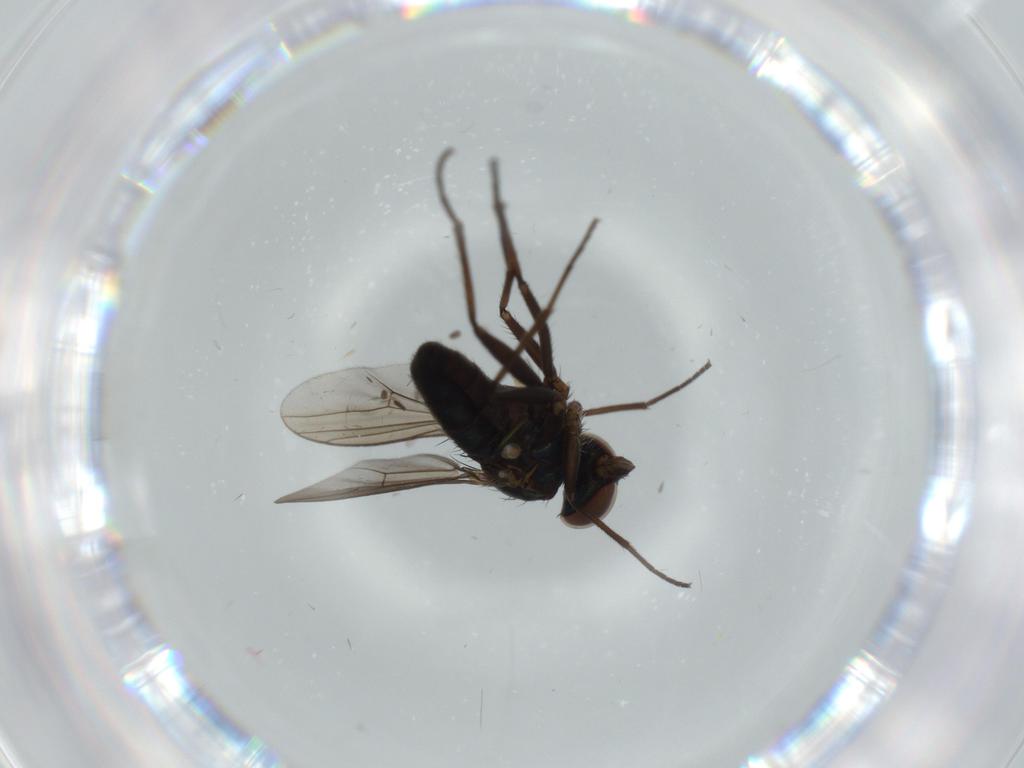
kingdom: Animalia
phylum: Arthropoda
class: Insecta
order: Diptera
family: Dolichopodidae
